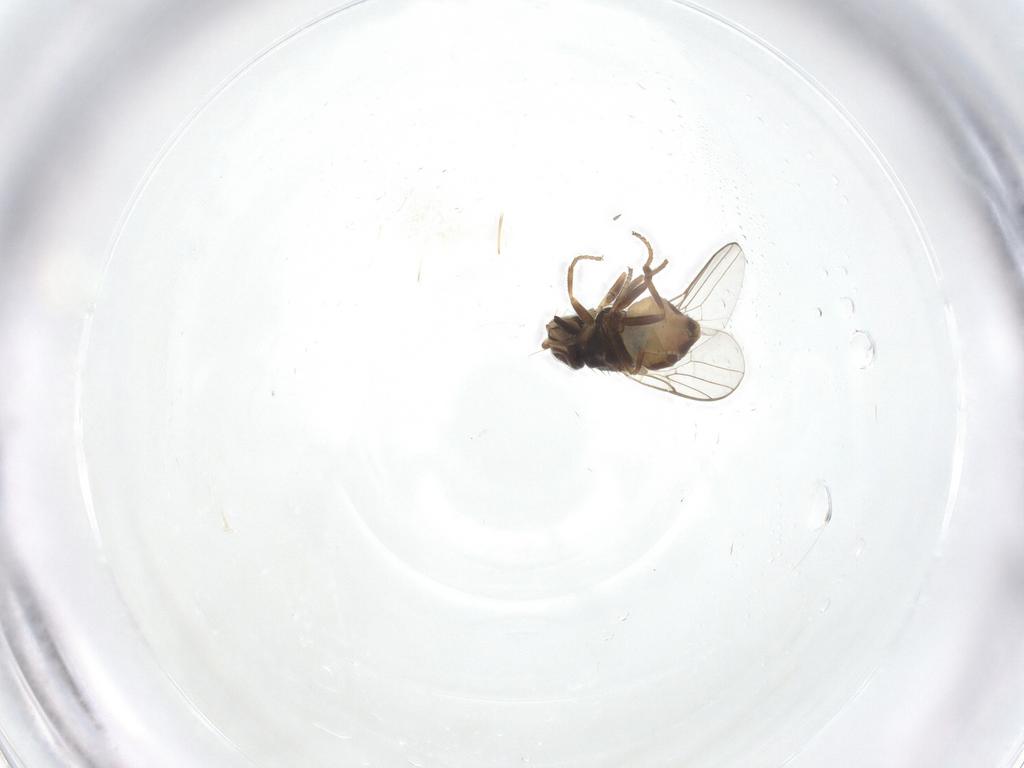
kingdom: Animalia
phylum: Arthropoda
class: Insecta
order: Diptera
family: Chloropidae
